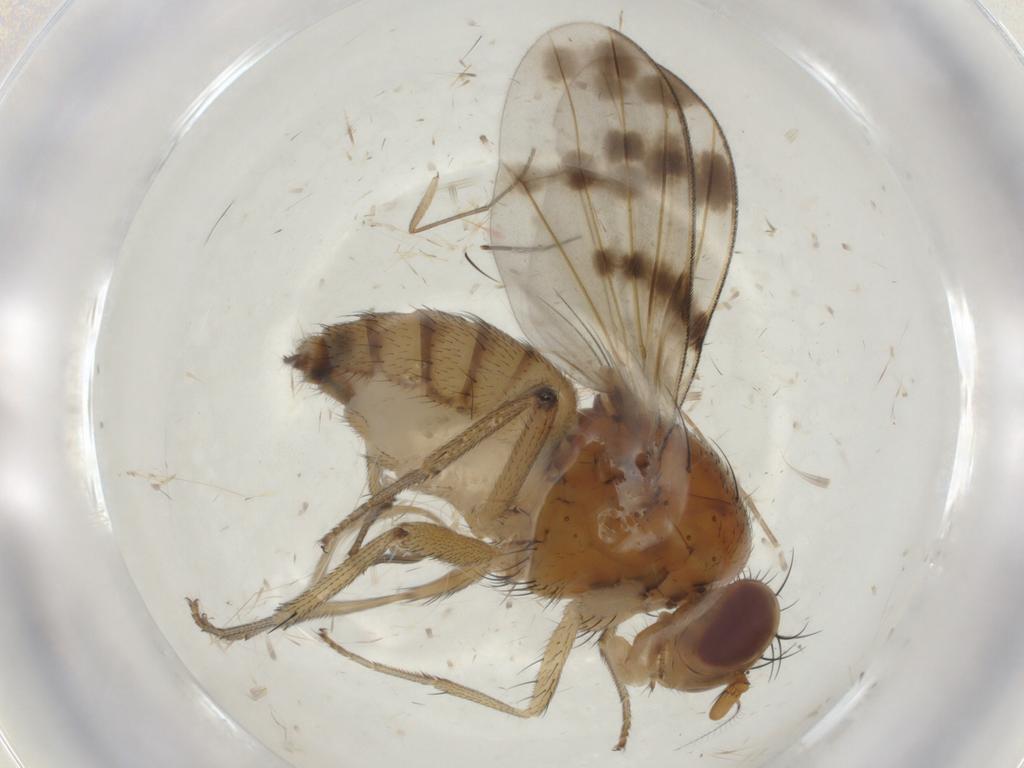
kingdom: Animalia
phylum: Arthropoda
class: Insecta
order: Diptera
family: Lauxaniidae
